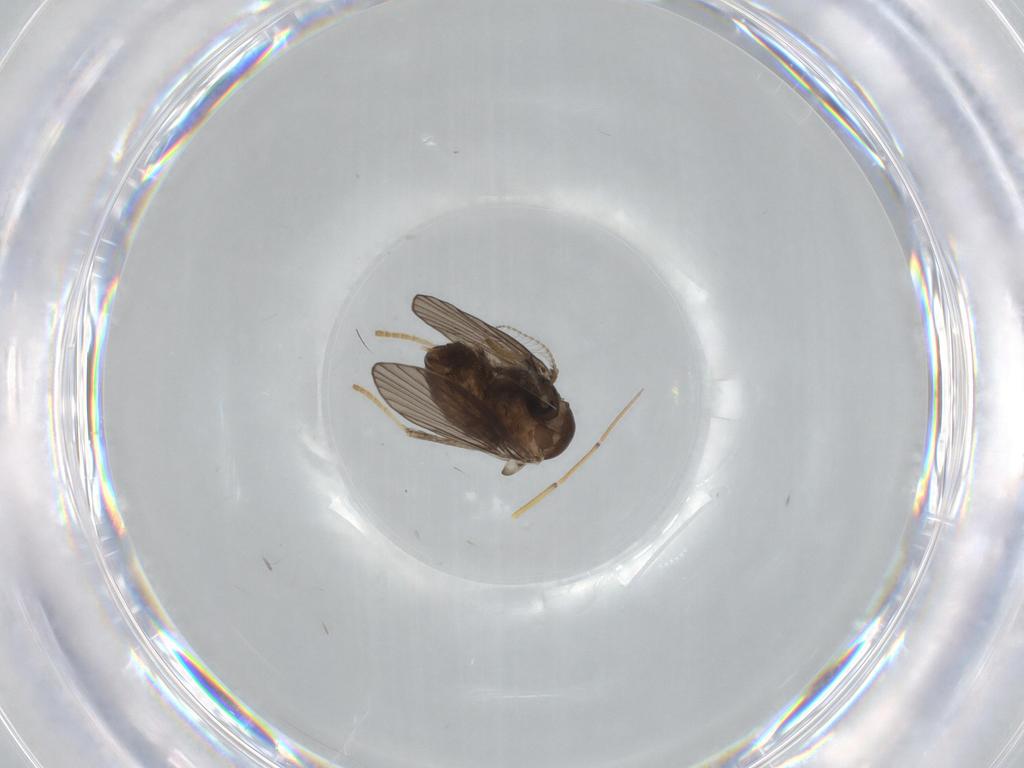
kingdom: Animalia
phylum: Arthropoda
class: Insecta
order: Diptera
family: Psychodidae
